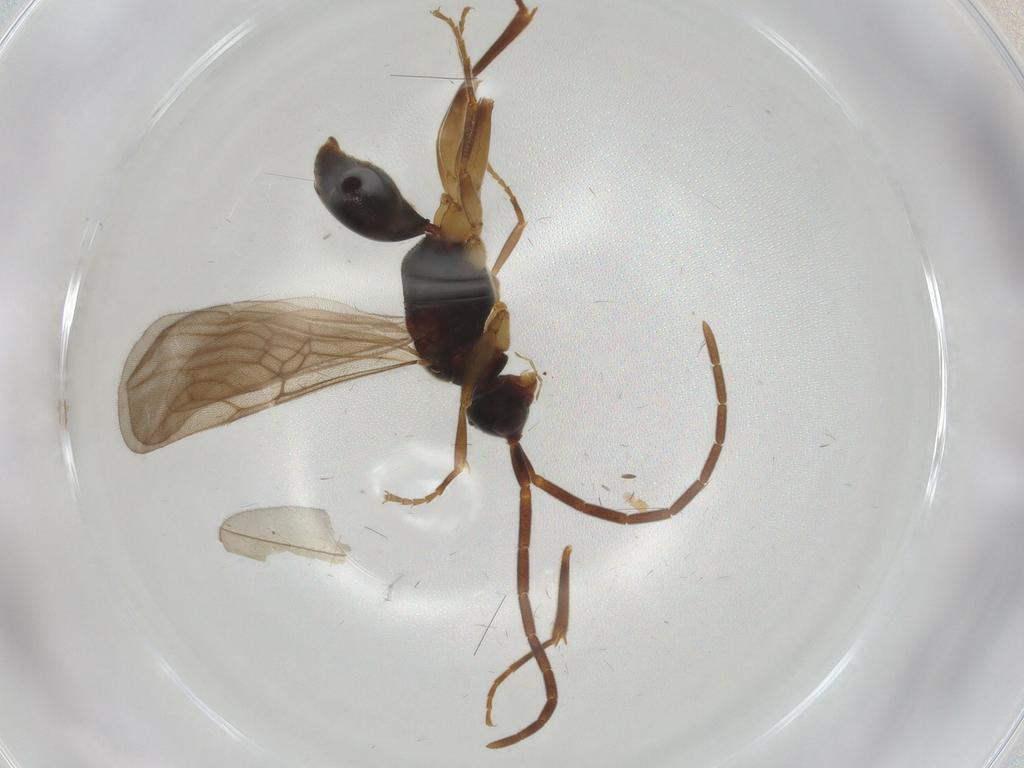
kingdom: Animalia
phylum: Arthropoda
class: Insecta
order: Hymenoptera
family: Embolemidae
